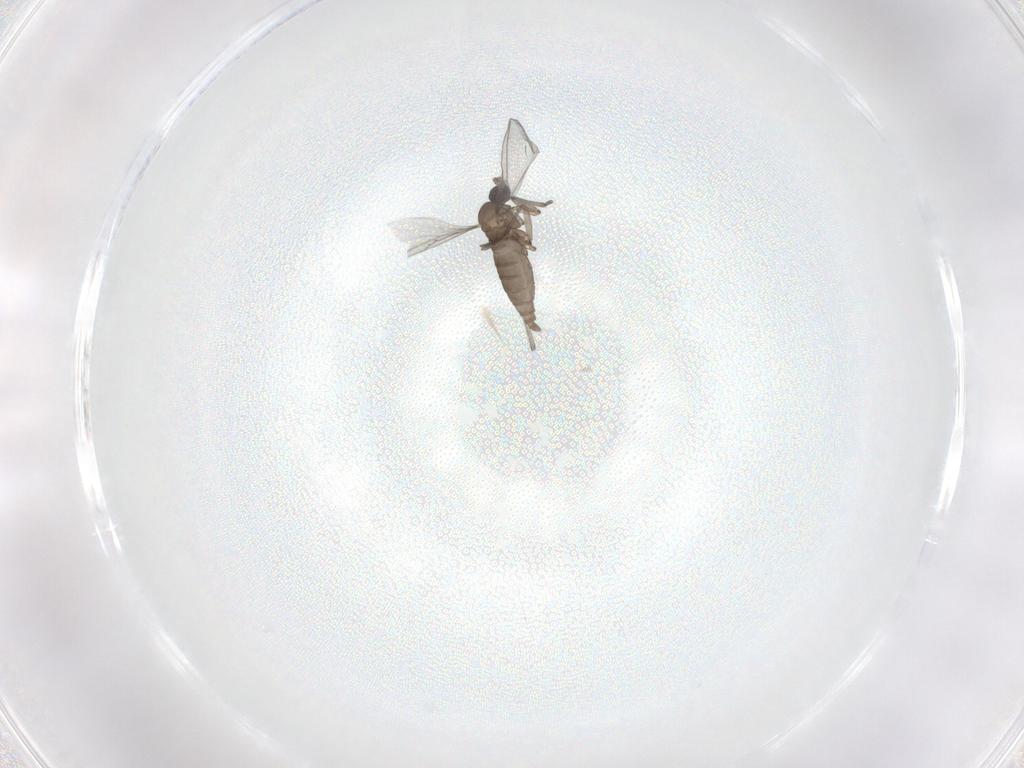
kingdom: Animalia
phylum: Arthropoda
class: Insecta
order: Diptera
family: Sciaridae
